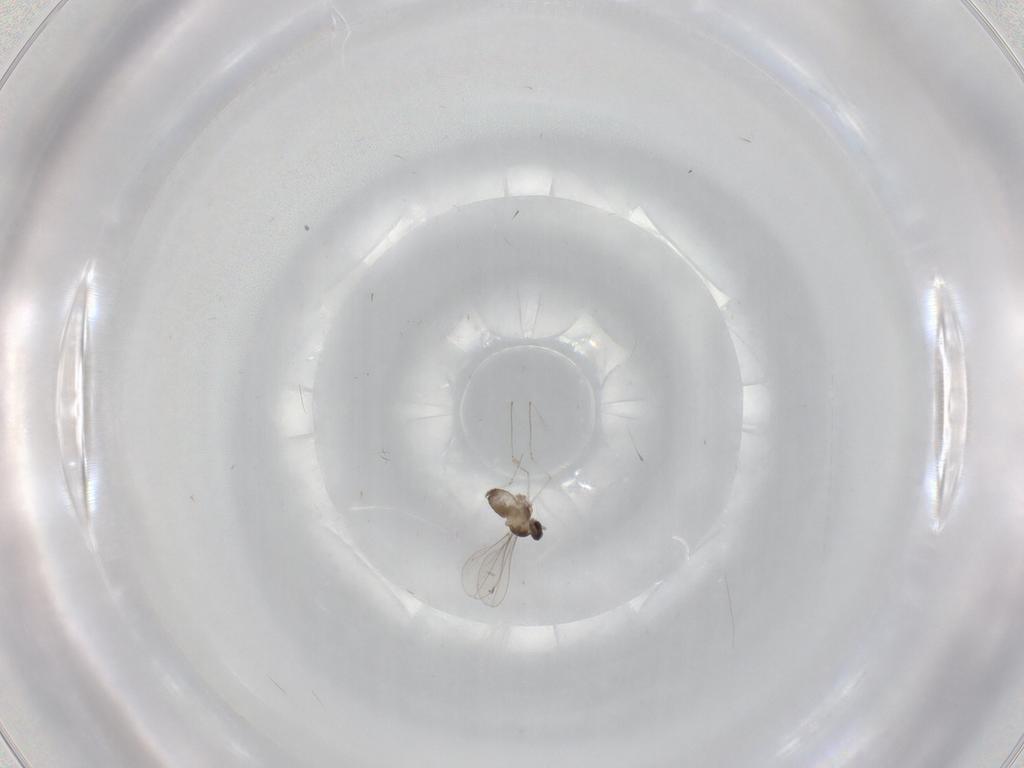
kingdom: Animalia
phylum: Arthropoda
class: Insecta
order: Diptera
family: Cecidomyiidae
